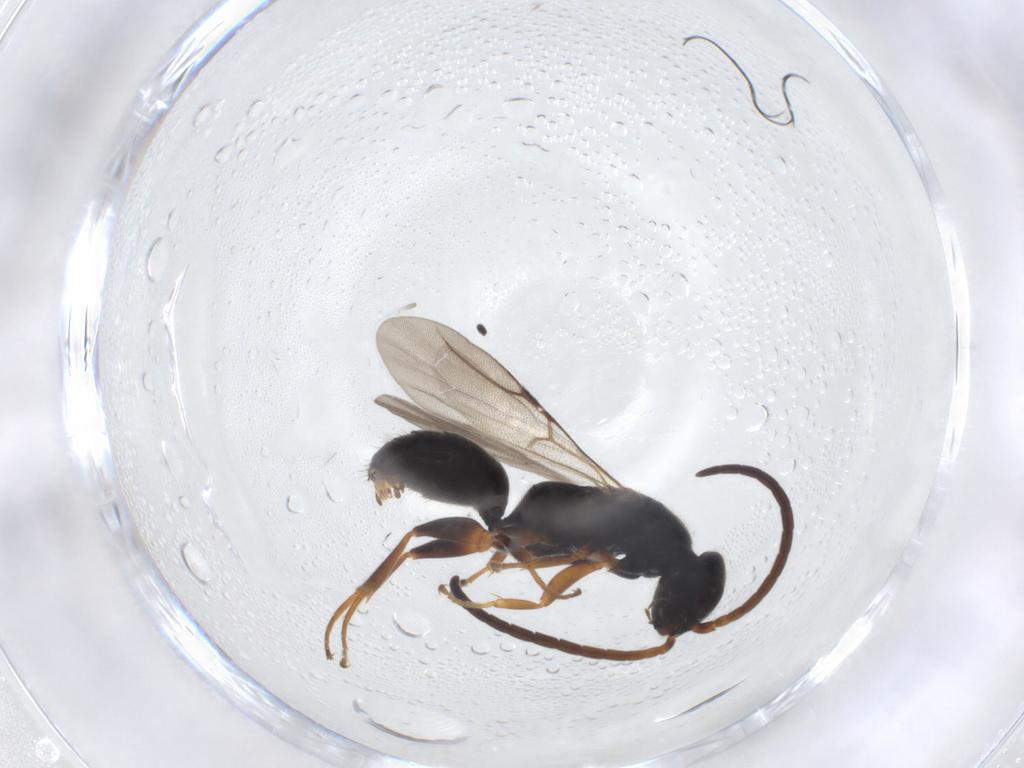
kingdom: Animalia
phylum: Arthropoda
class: Insecta
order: Hymenoptera
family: Bethylidae
